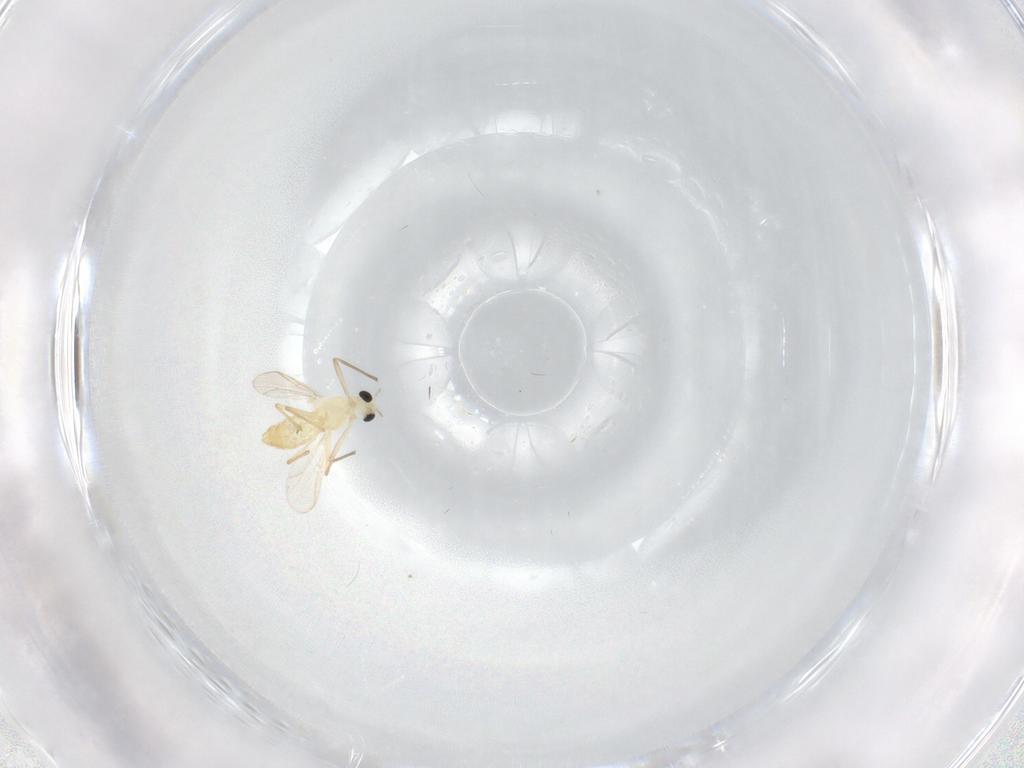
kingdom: Animalia
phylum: Arthropoda
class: Insecta
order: Diptera
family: Chironomidae
